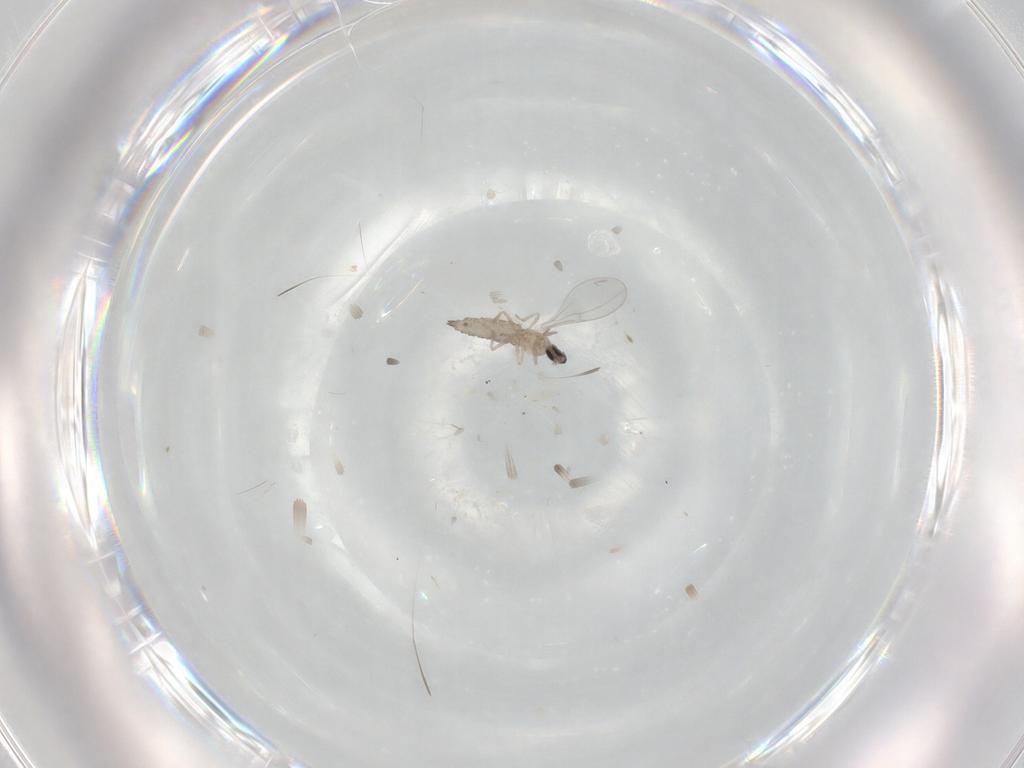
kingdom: Animalia
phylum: Arthropoda
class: Insecta
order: Diptera
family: Cecidomyiidae
